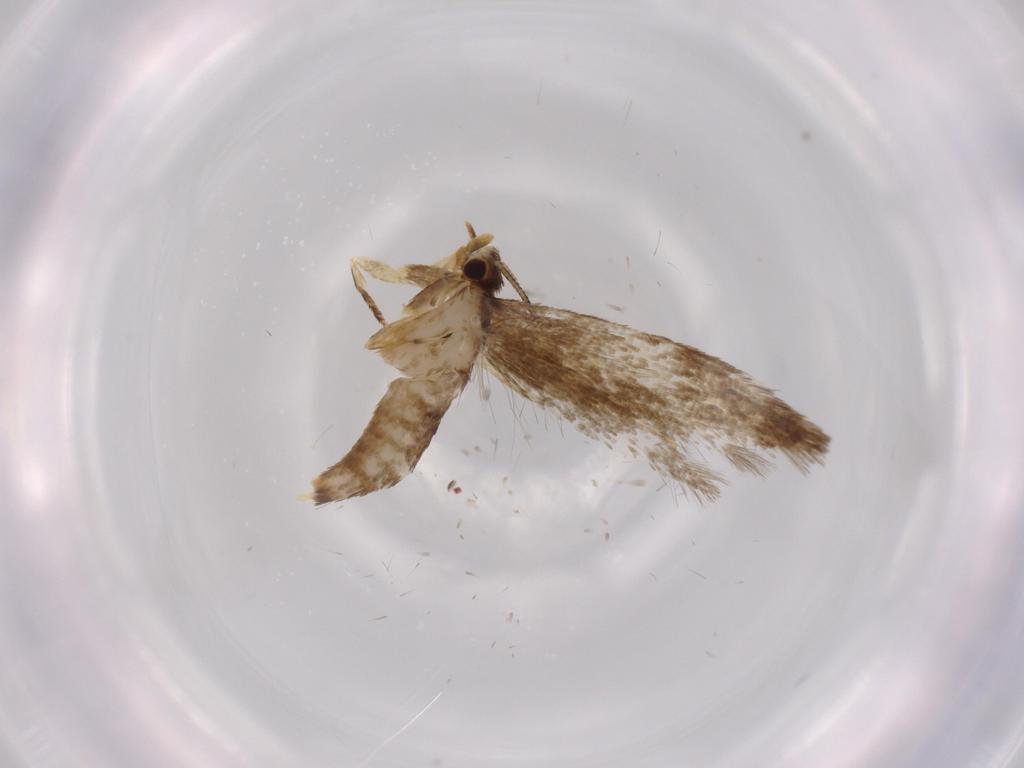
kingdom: Animalia
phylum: Arthropoda
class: Insecta
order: Lepidoptera
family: Tineidae
